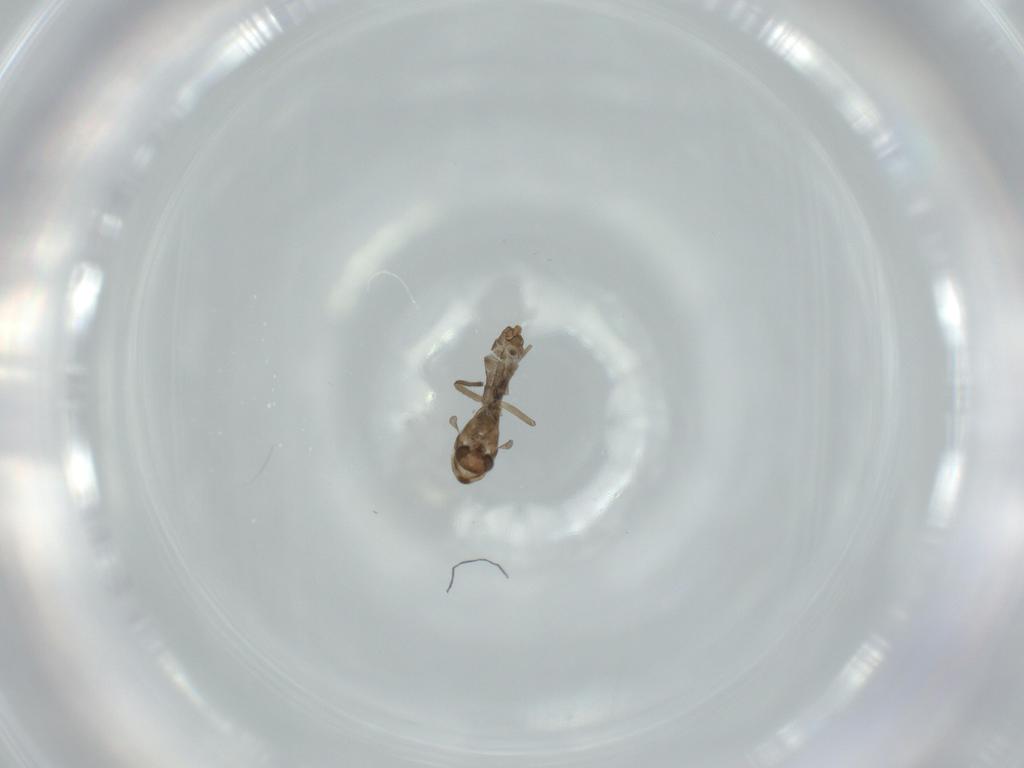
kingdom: Animalia
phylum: Arthropoda
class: Insecta
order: Diptera
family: Chironomidae
